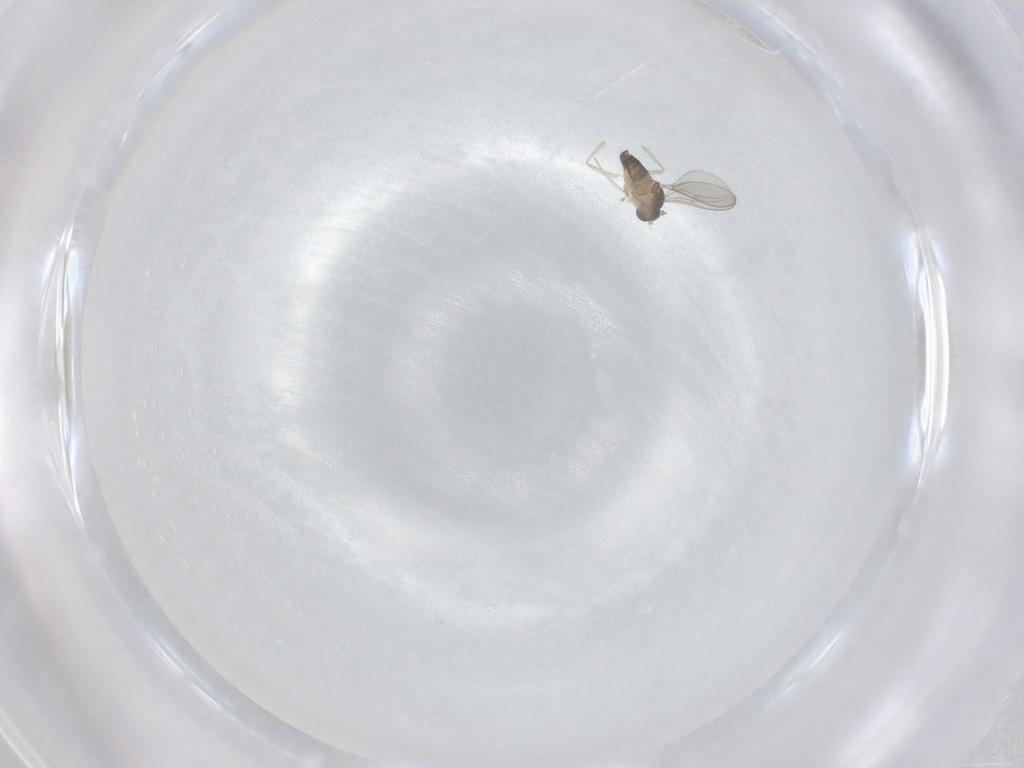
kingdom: Animalia
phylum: Arthropoda
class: Insecta
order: Diptera
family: Cecidomyiidae
